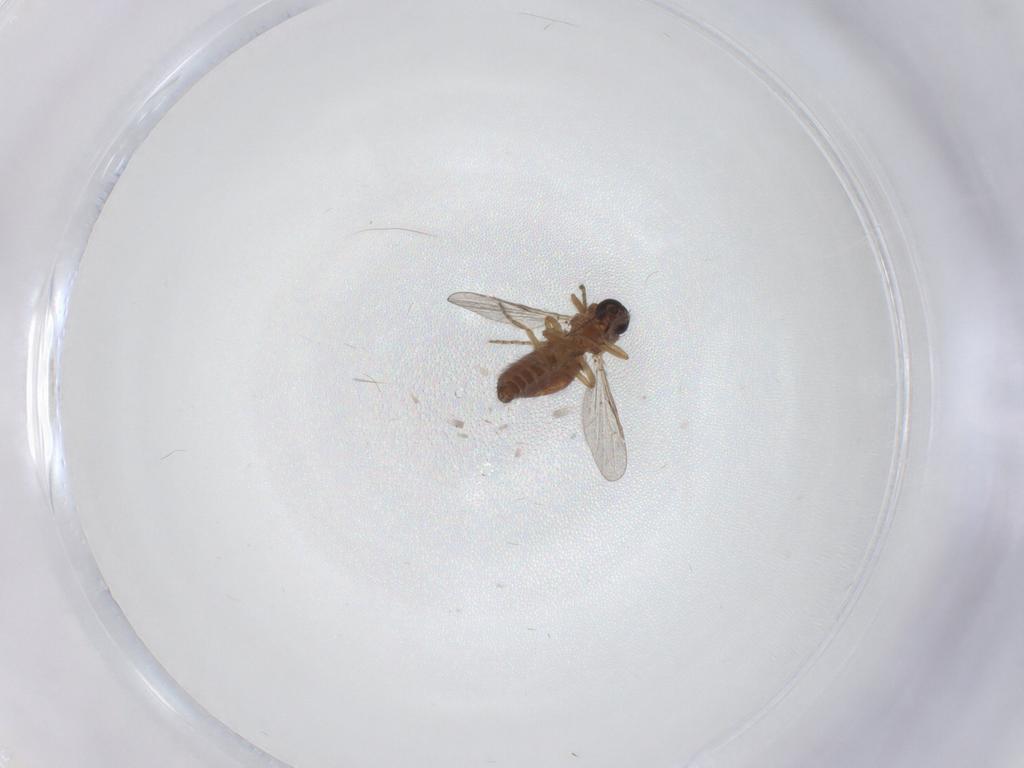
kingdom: Animalia
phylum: Arthropoda
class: Insecta
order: Diptera
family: Ceratopogonidae
